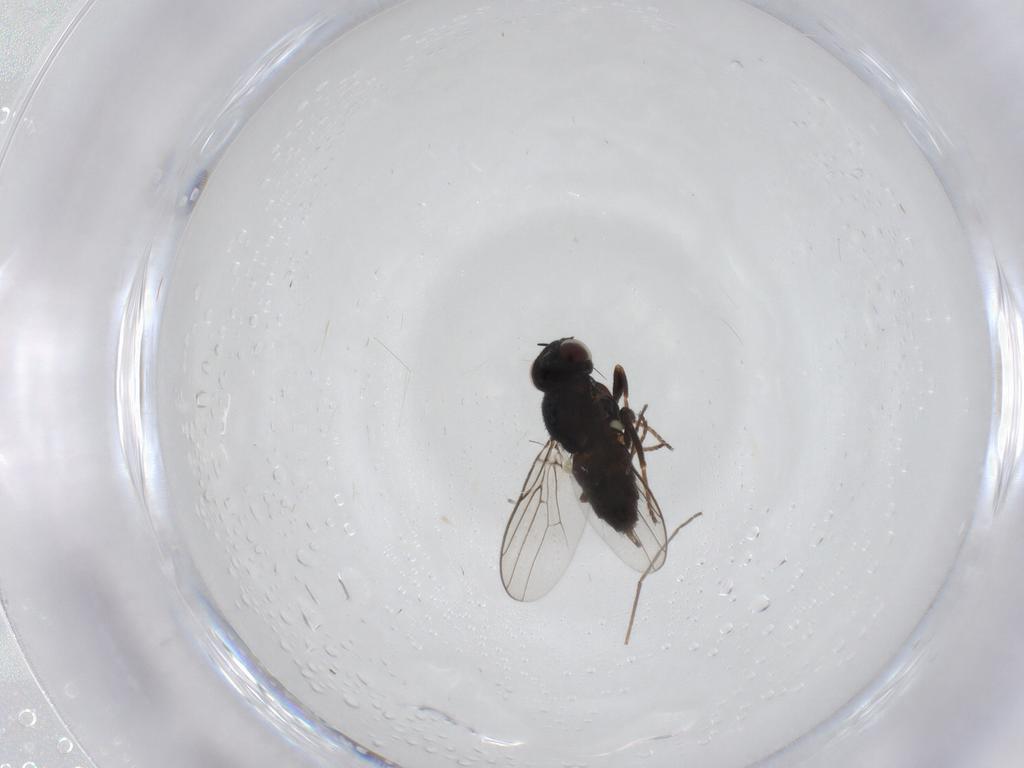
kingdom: Animalia
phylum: Arthropoda
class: Insecta
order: Diptera
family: Chloropidae
